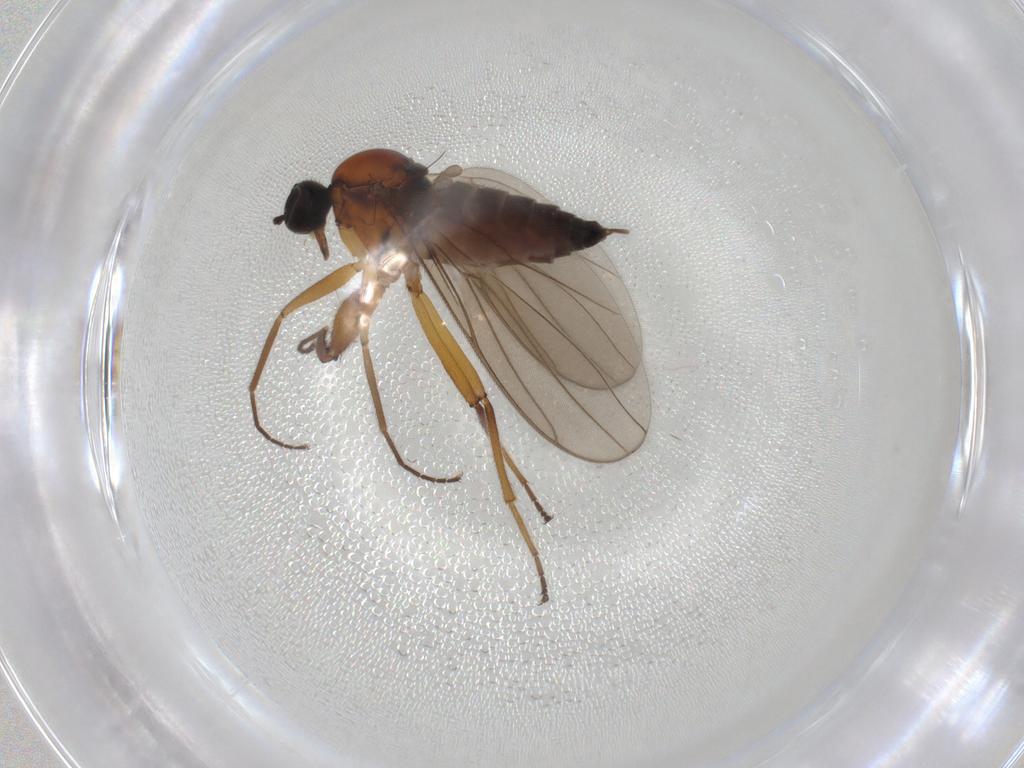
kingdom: Animalia
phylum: Arthropoda
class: Insecta
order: Diptera
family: Hybotidae
